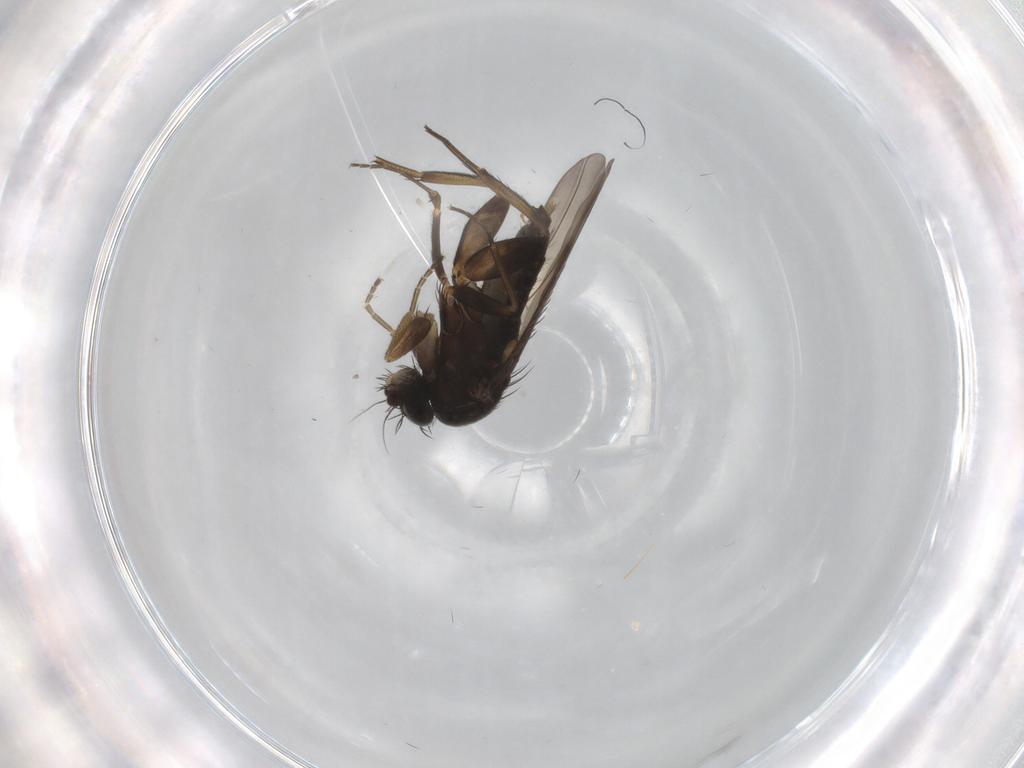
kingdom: Animalia
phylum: Arthropoda
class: Insecta
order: Diptera
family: Phoridae
